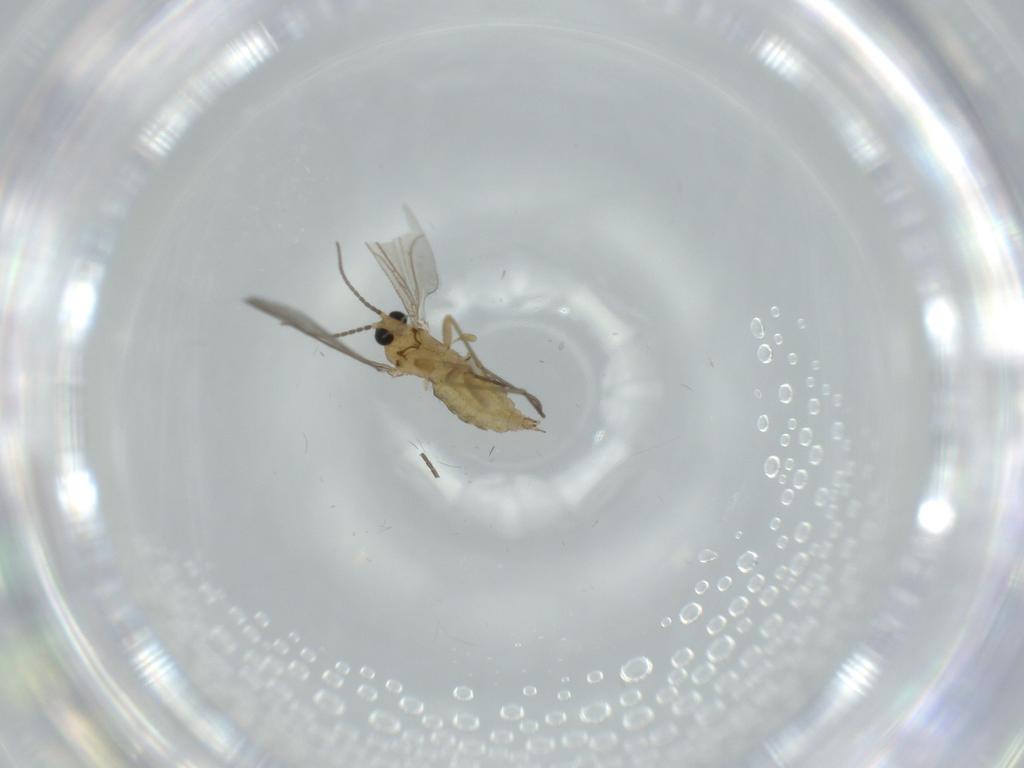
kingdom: Animalia
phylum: Arthropoda
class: Insecta
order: Diptera
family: Sciaridae
